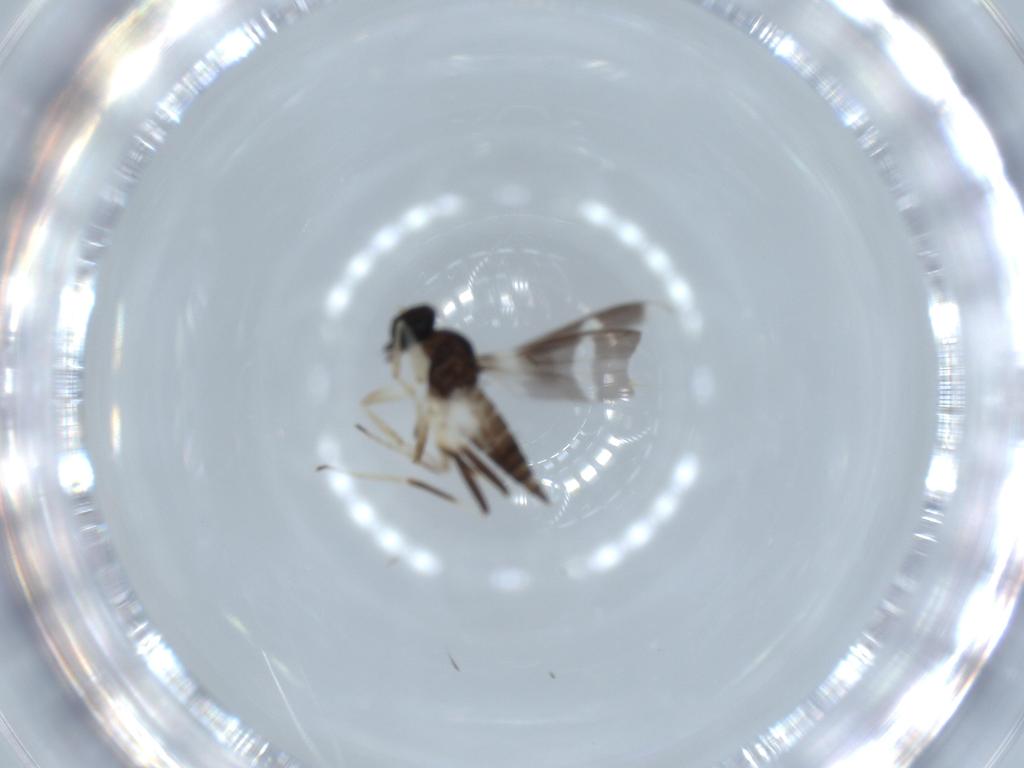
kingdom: Animalia
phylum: Arthropoda
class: Insecta
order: Diptera
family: Hybotidae
